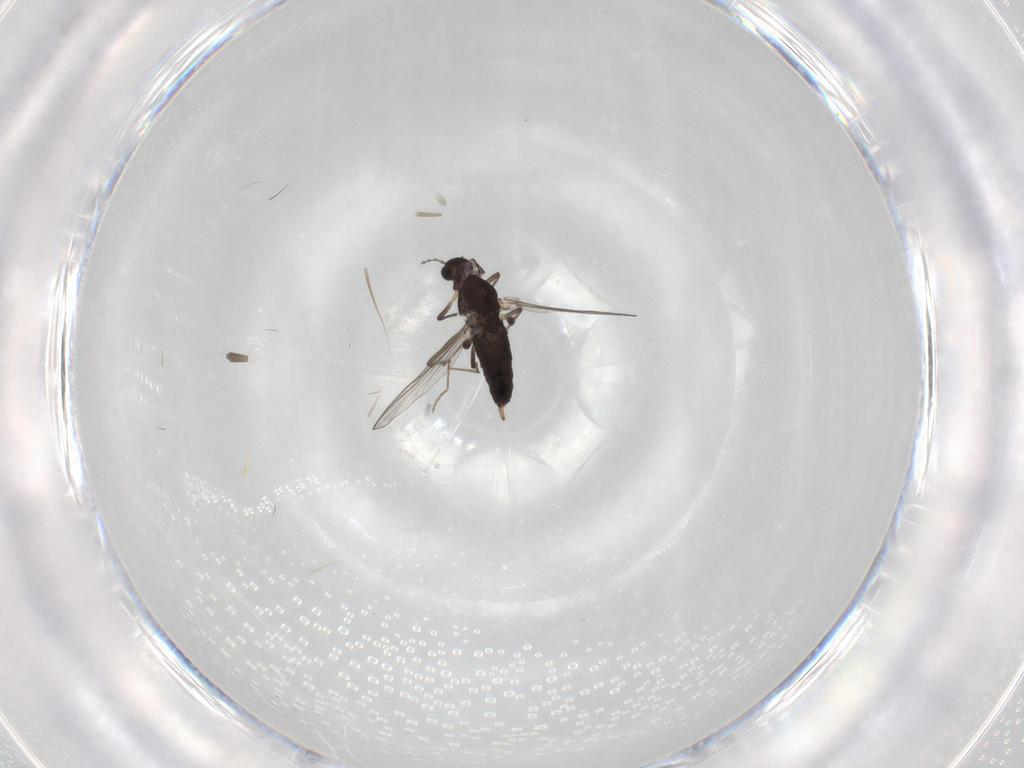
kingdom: Animalia
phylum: Arthropoda
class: Insecta
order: Diptera
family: Chironomidae
